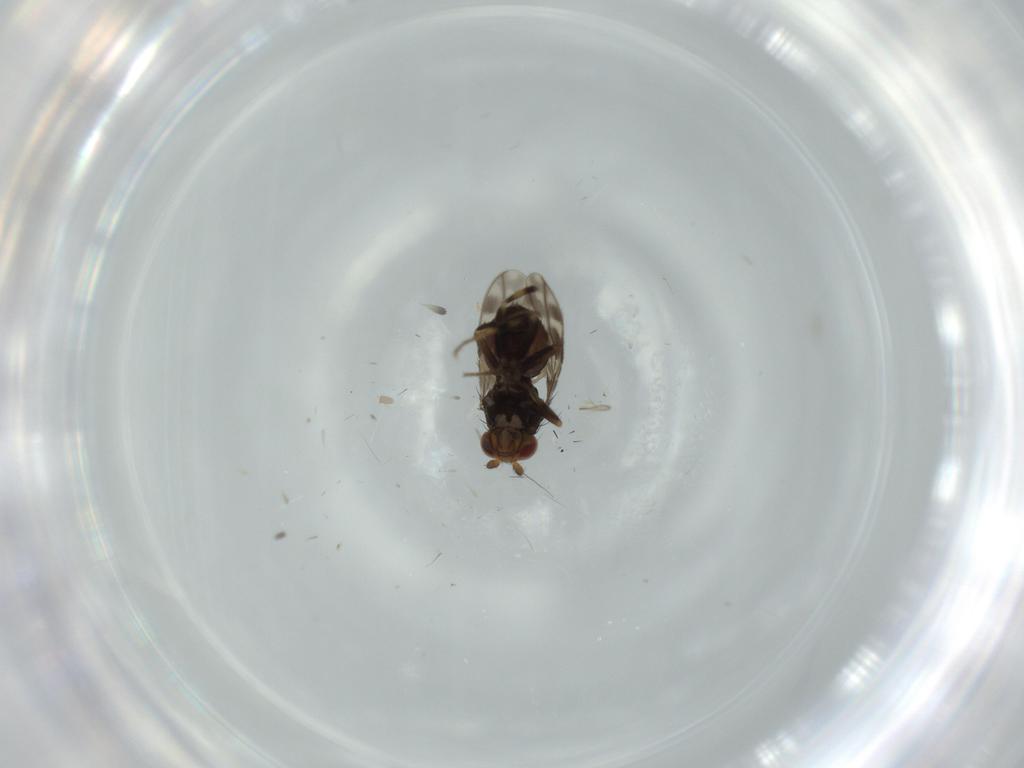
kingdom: Animalia
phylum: Arthropoda
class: Insecta
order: Diptera
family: Sphaeroceridae
